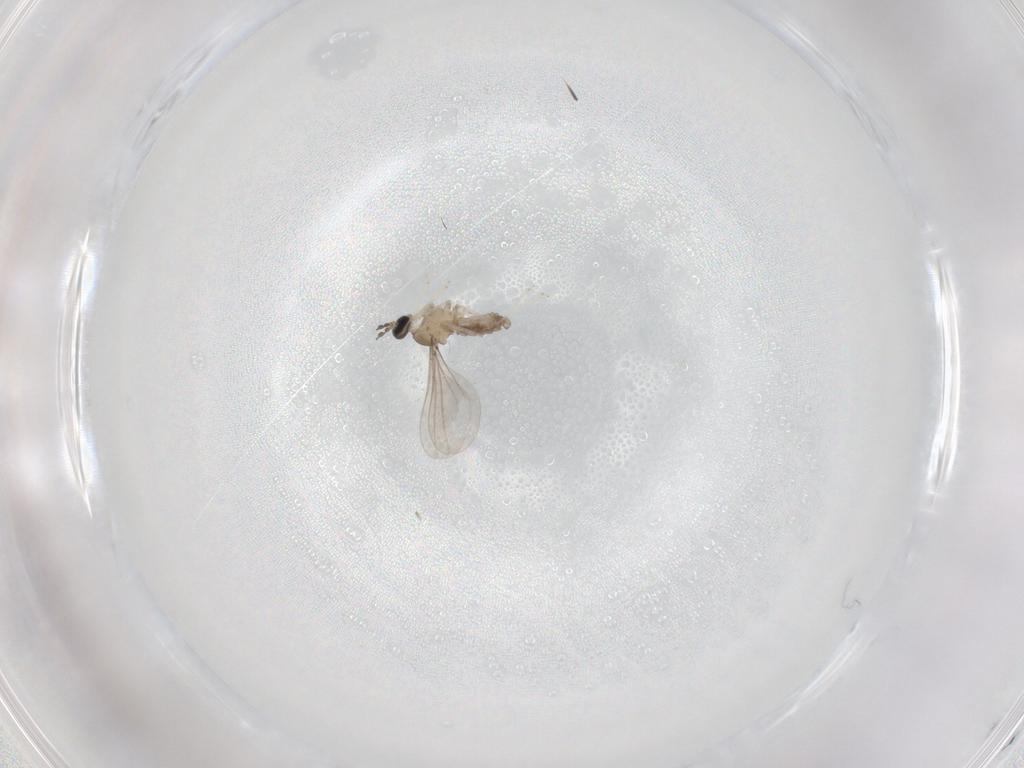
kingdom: Animalia
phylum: Arthropoda
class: Insecta
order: Diptera
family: Cecidomyiidae
